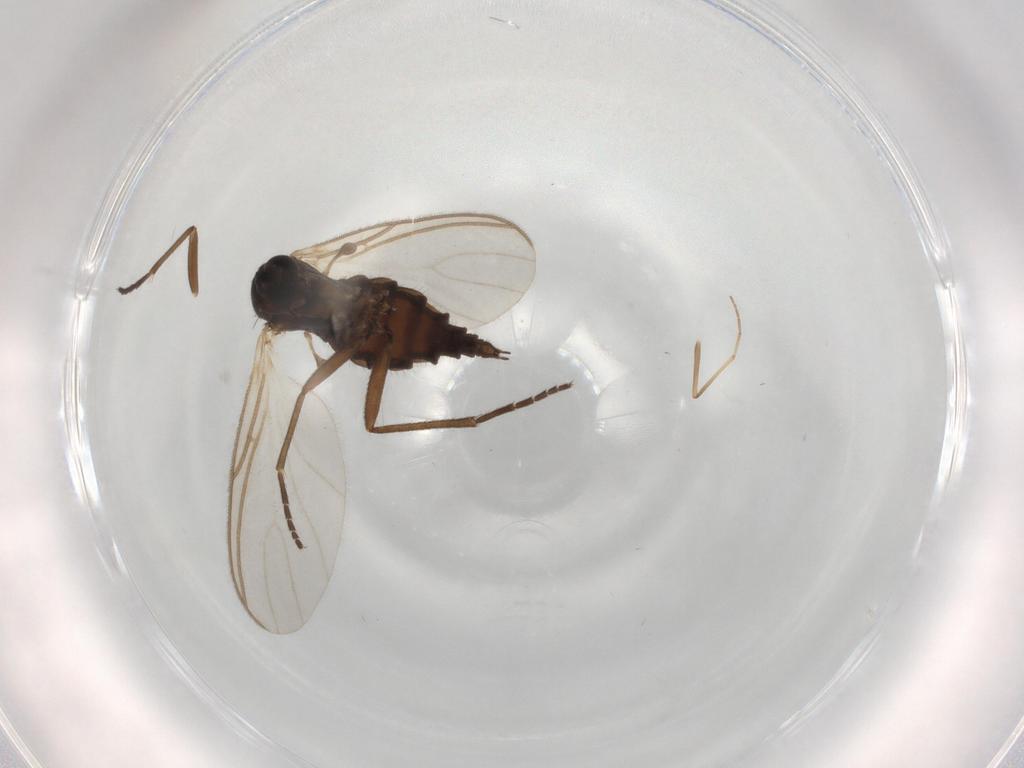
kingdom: Animalia
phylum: Arthropoda
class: Insecta
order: Diptera
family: Sciaridae
